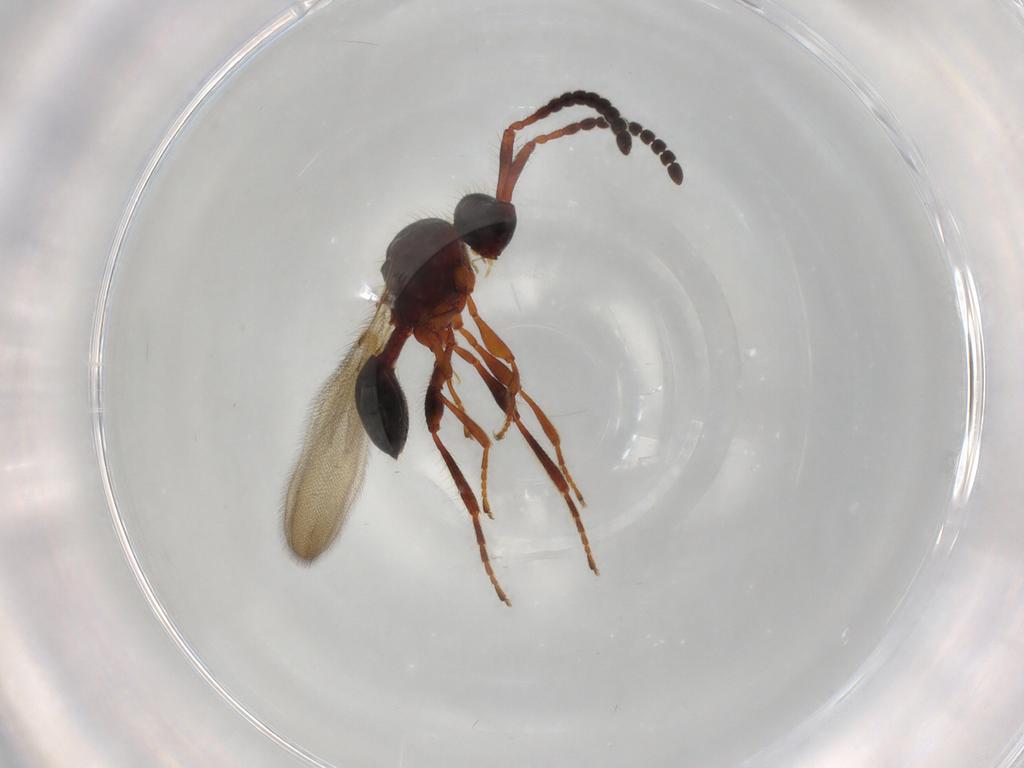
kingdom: Animalia
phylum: Arthropoda
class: Insecta
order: Hymenoptera
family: Diapriidae
